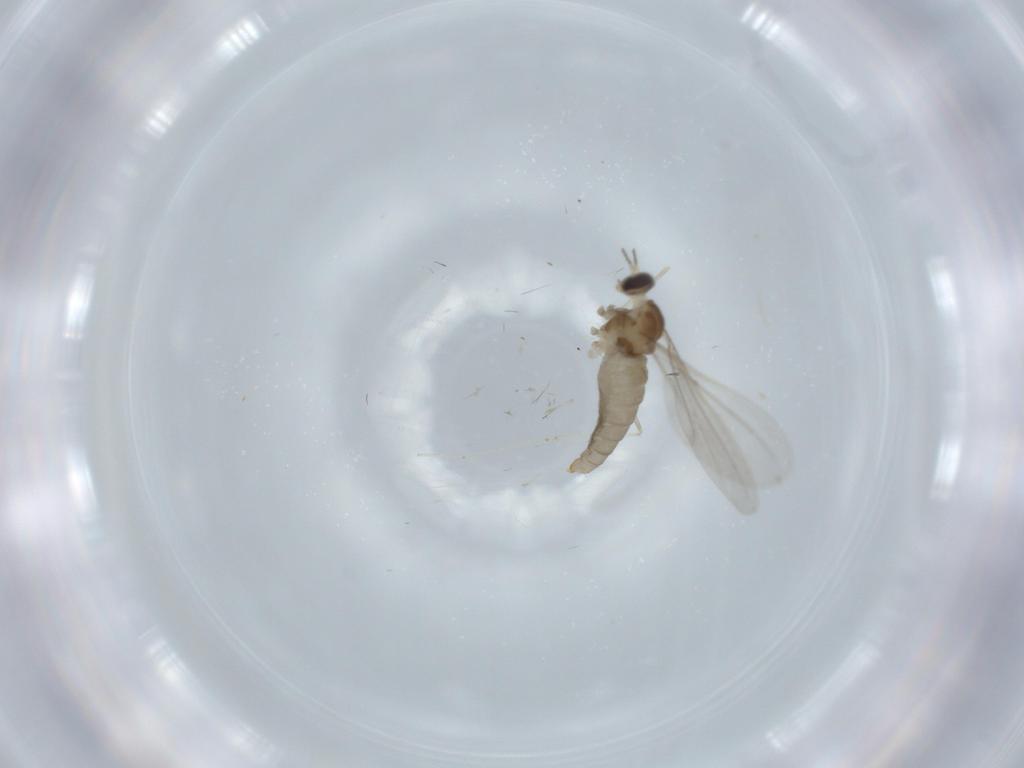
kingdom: Animalia
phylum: Arthropoda
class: Insecta
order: Diptera
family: Cecidomyiidae
